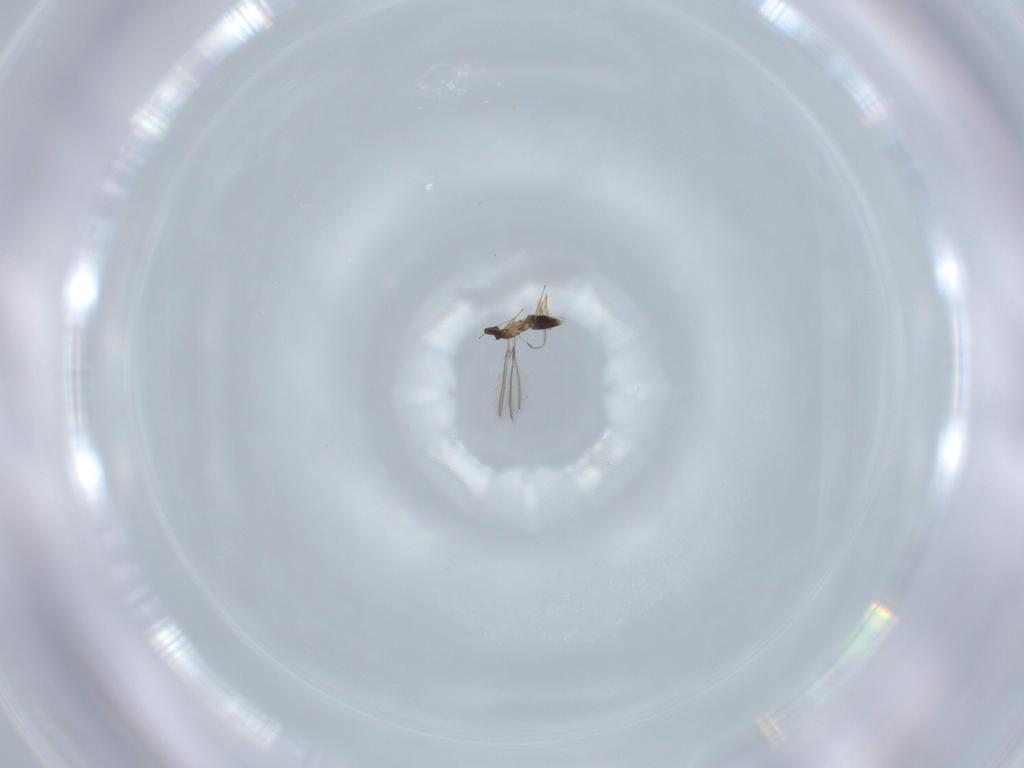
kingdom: Animalia
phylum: Arthropoda
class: Insecta
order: Hymenoptera
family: Mymaridae
